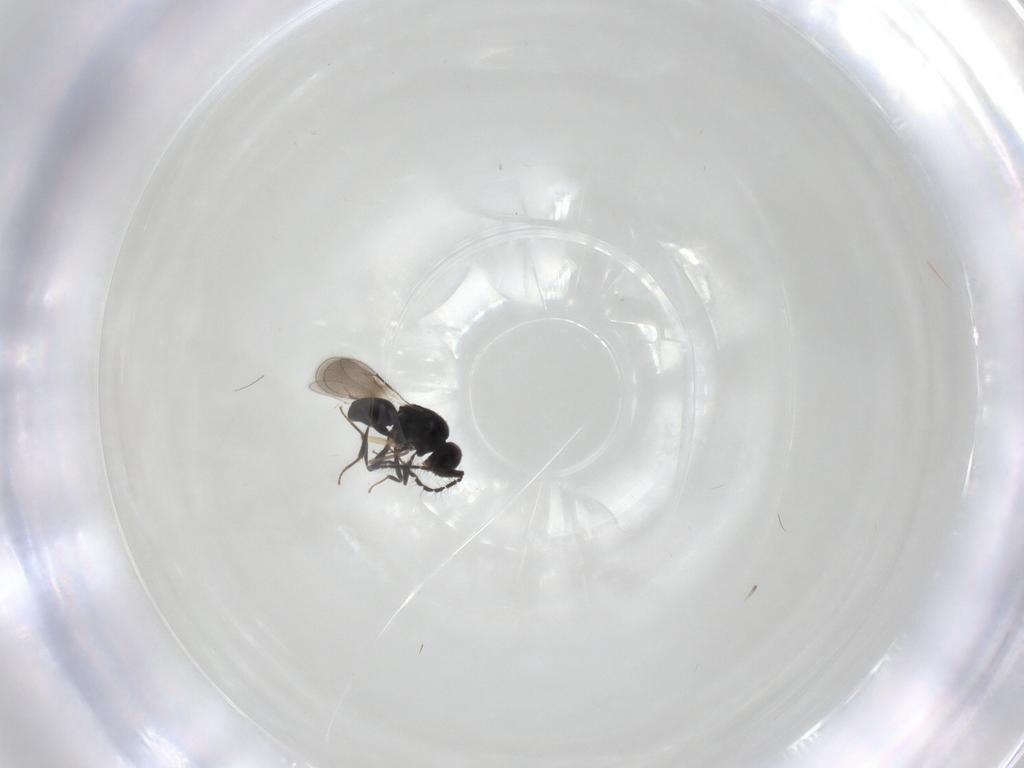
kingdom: Animalia
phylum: Arthropoda
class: Insecta
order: Hymenoptera
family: Ceraphronidae
